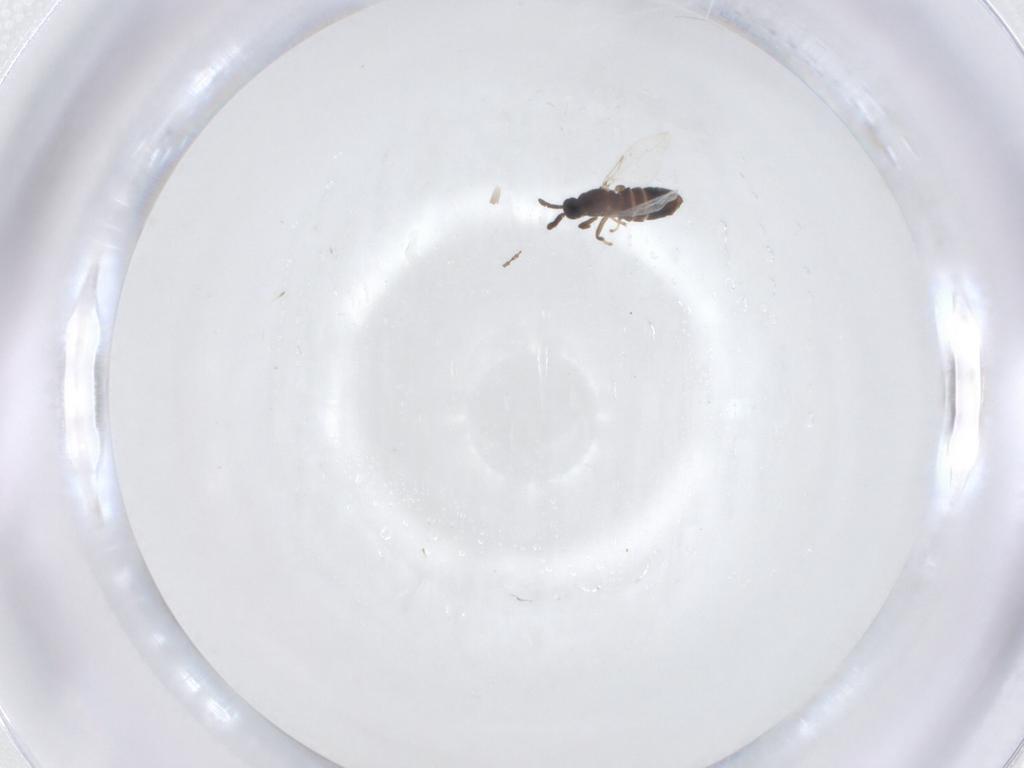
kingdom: Animalia
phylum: Arthropoda
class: Insecta
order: Diptera
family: Scatopsidae
